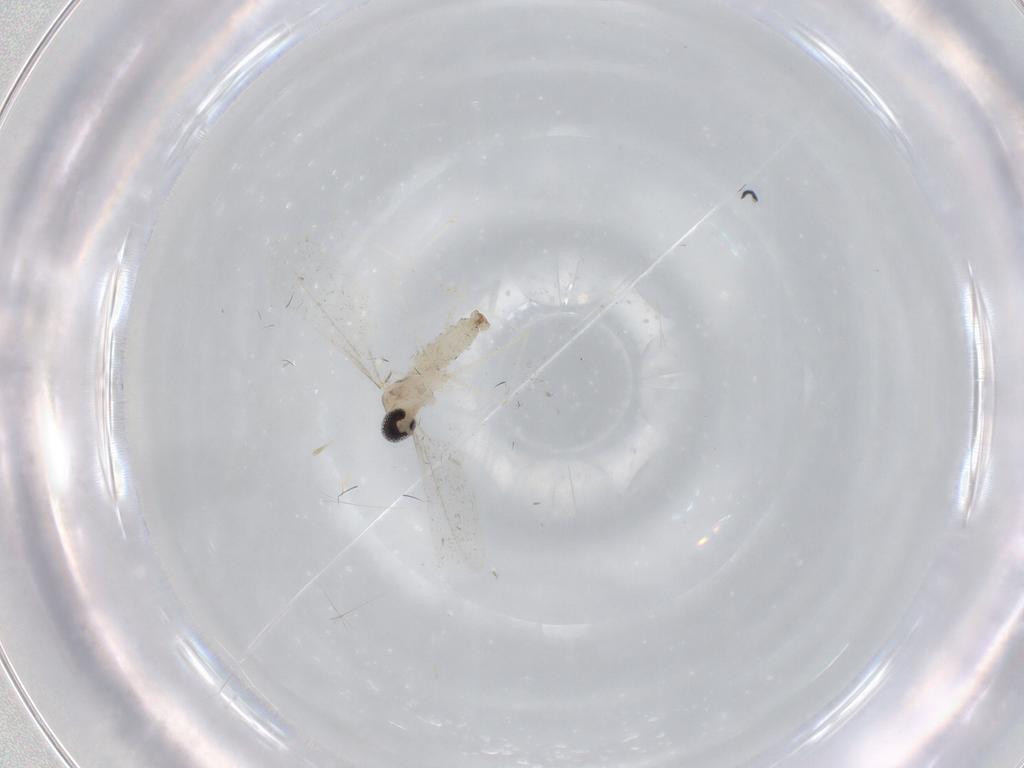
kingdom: Animalia
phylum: Arthropoda
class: Insecta
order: Diptera
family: Cecidomyiidae
